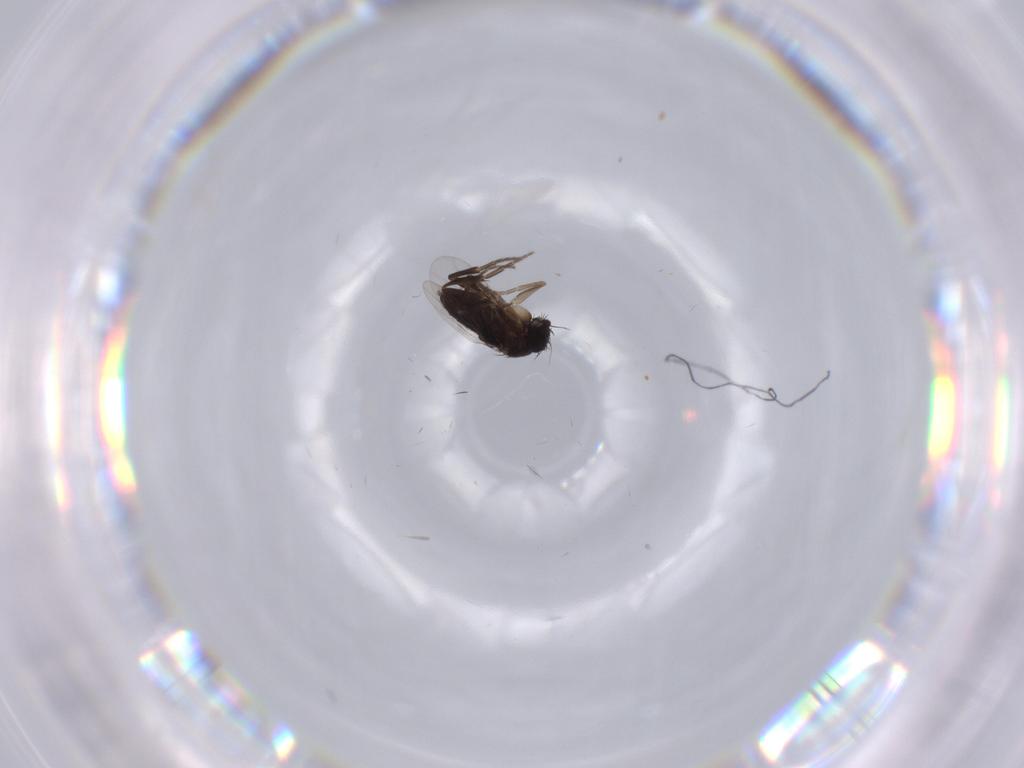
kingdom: Animalia
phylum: Arthropoda
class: Insecta
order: Diptera
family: Phoridae
